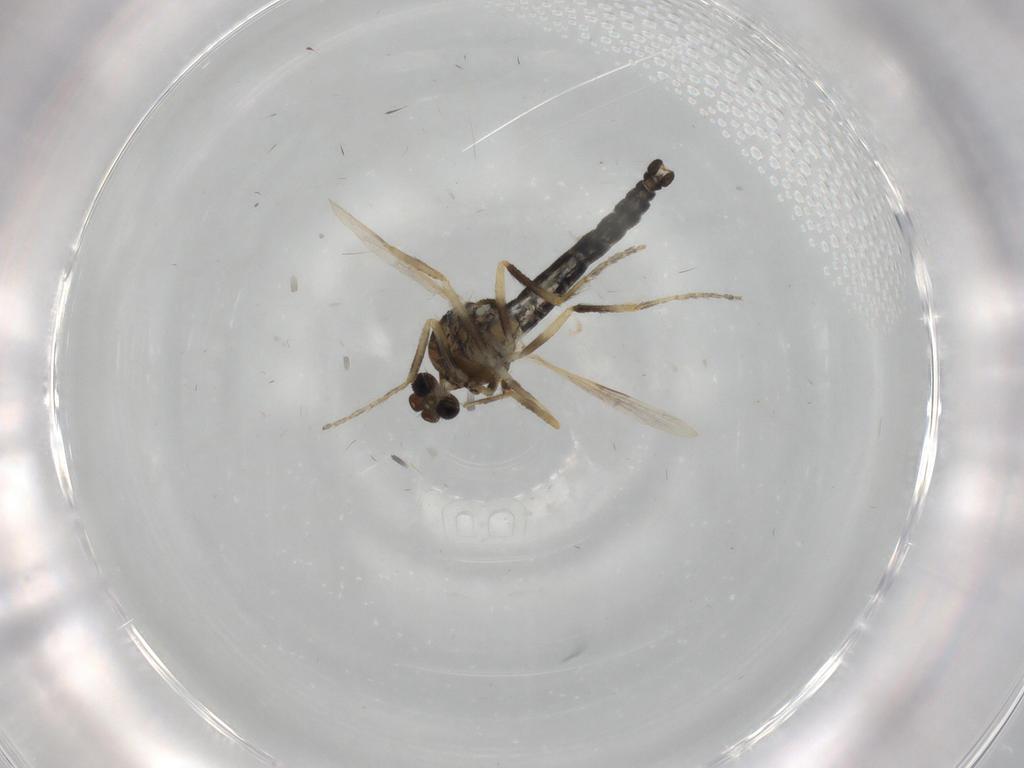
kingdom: Animalia
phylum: Arthropoda
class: Insecta
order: Diptera
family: Ceratopogonidae
